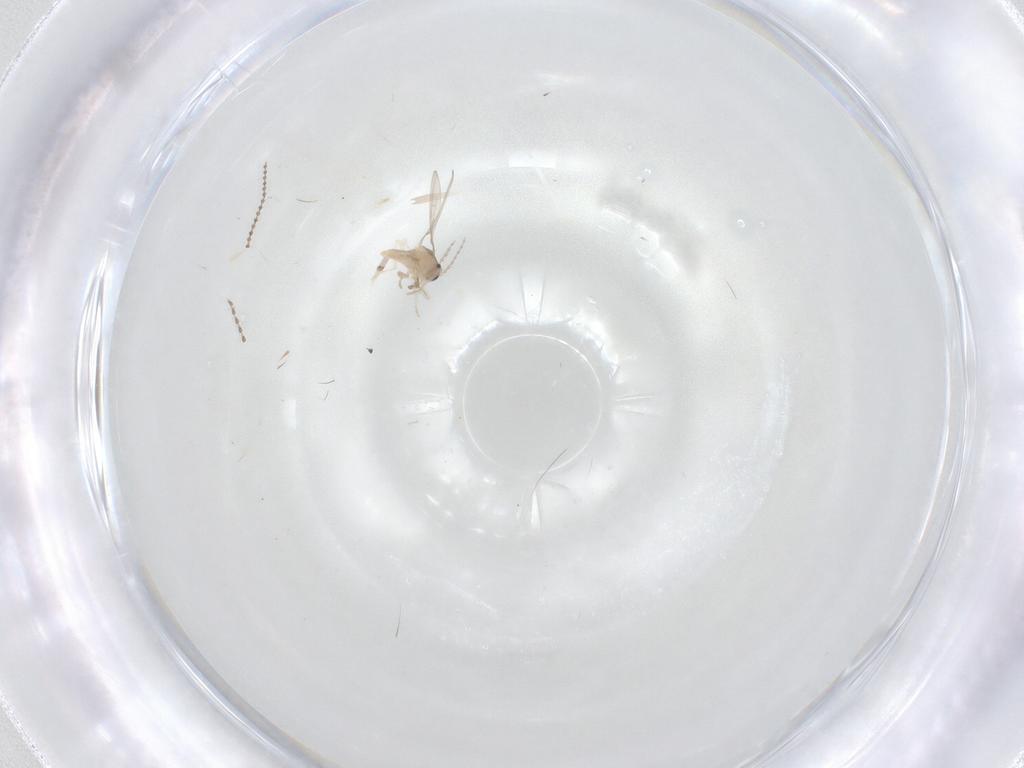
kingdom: Animalia
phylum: Arthropoda
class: Insecta
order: Diptera
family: Cecidomyiidae
